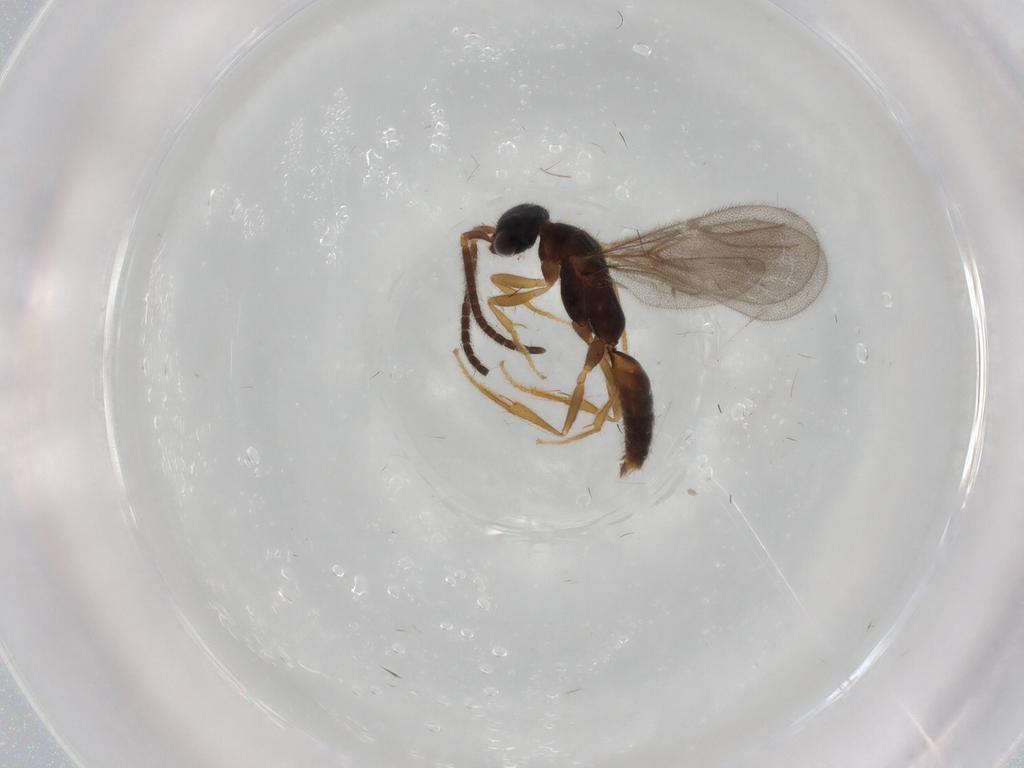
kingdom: Animalia
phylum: Arthropoda
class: Insecta
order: Hymenoptera
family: Bethylidae
